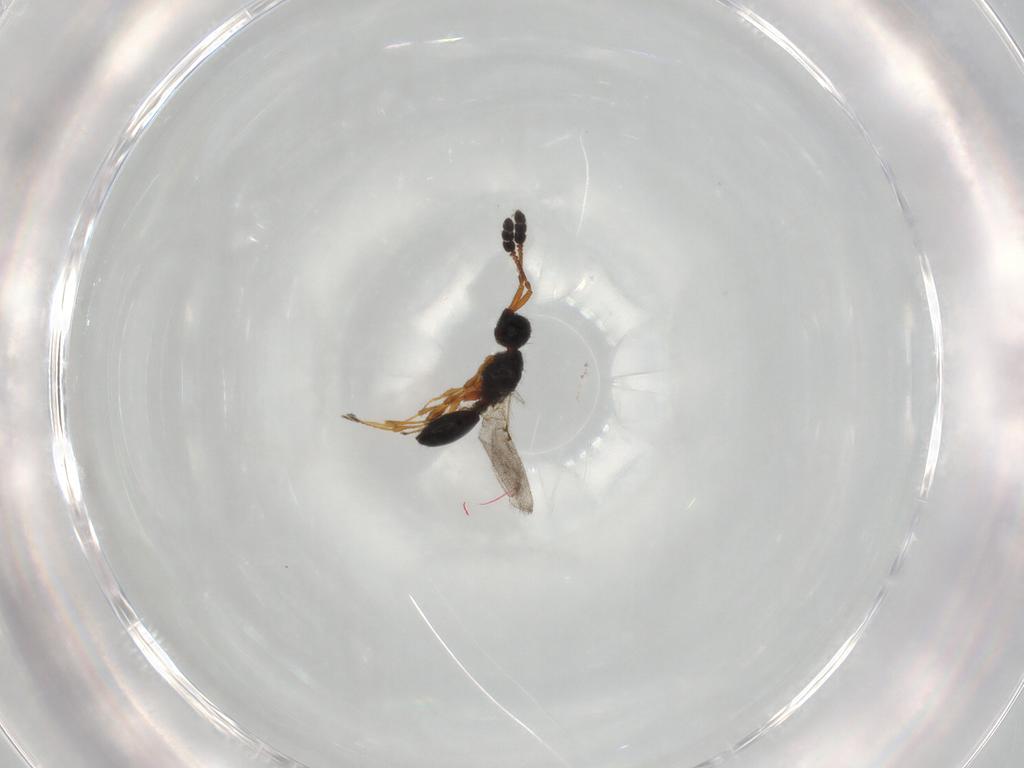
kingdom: Animalia
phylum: Arthropoda
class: Insecta
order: Hymenoptera
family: Diapriidae
